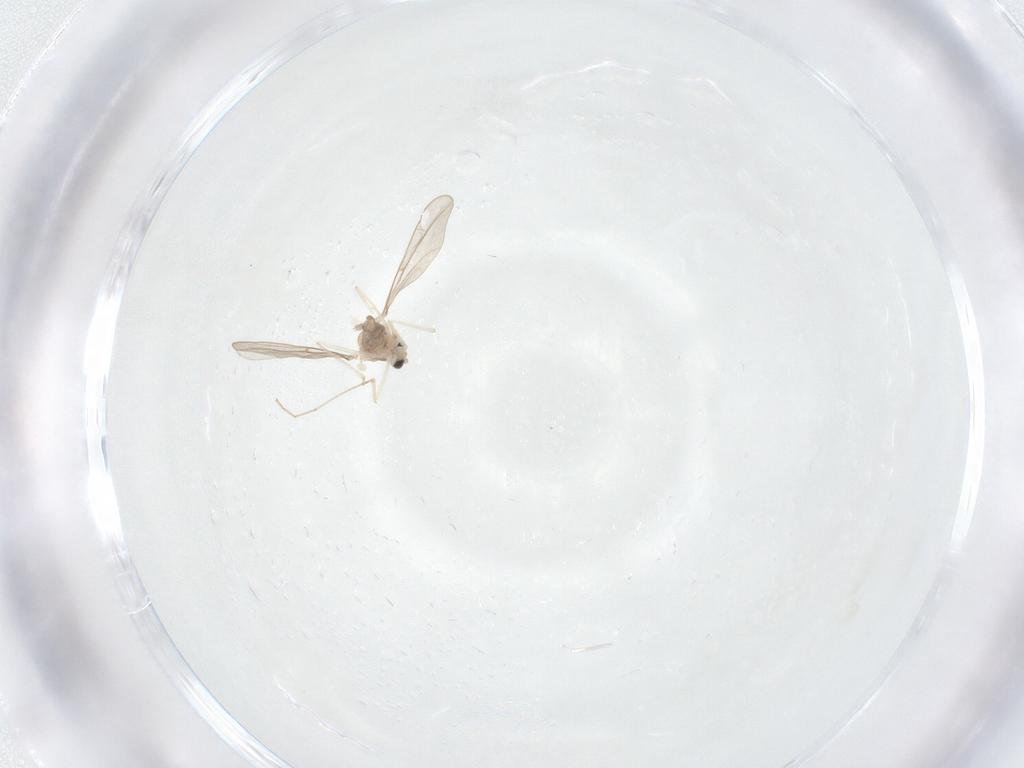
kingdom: Animalia
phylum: Arthropoda
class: Insecta
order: Diptera
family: Cecidomyiidae
